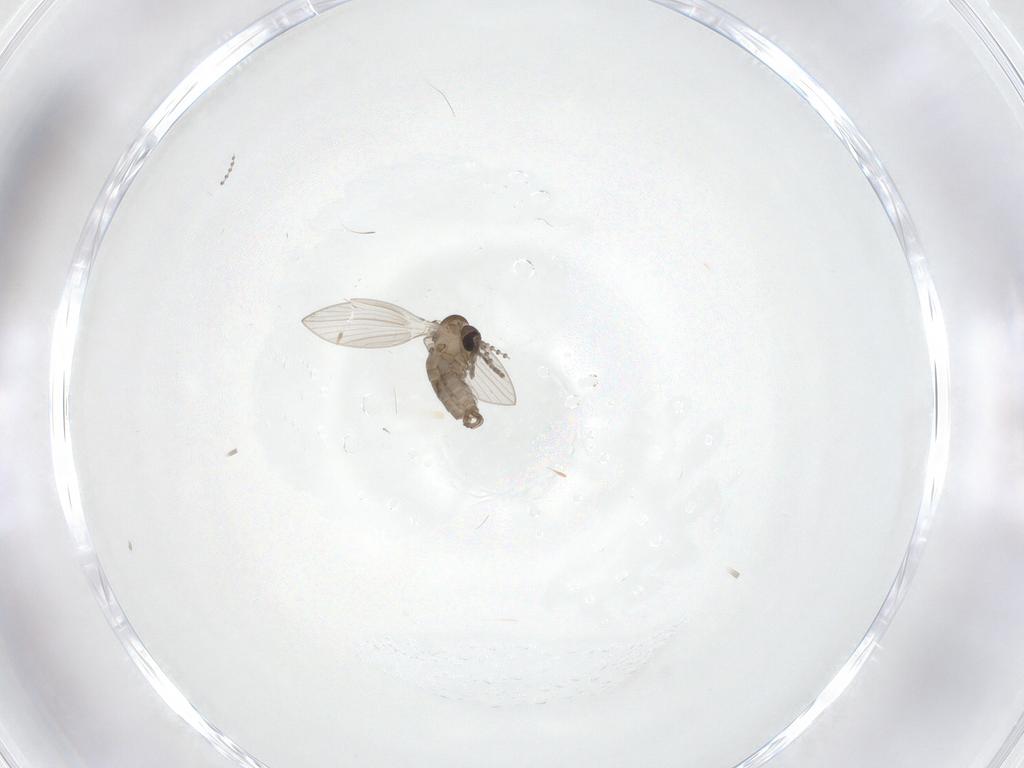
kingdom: Animalia
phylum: Arthropoda
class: Insecta
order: Diptera
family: Psychodidae
